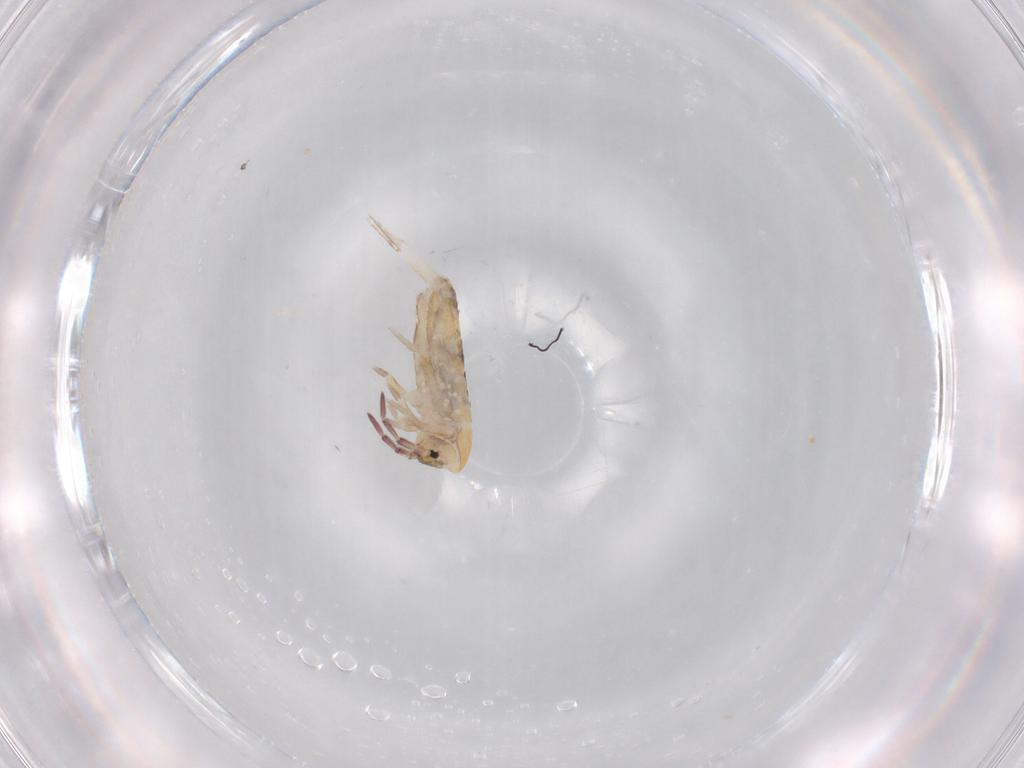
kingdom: Animalia
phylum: Arthropoda
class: Collembola
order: Entomobryomorpha
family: Entomobryidae
